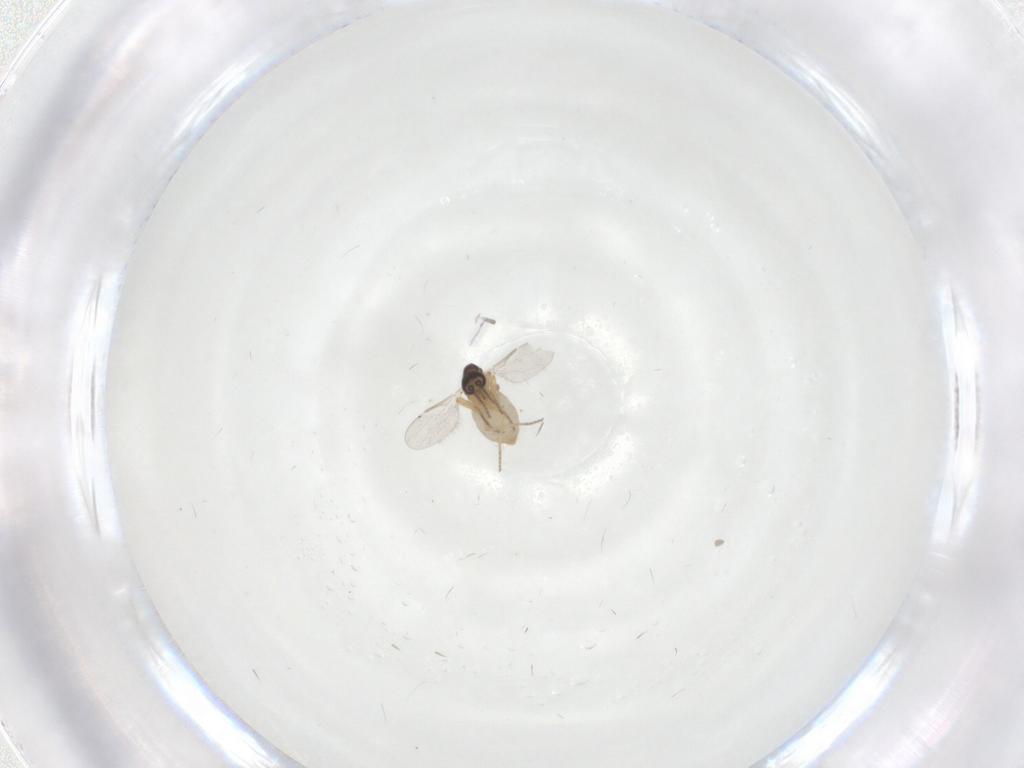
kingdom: Animalia
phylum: Arthropoda
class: Insecta
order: Diptera
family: Ceratopogonidae
